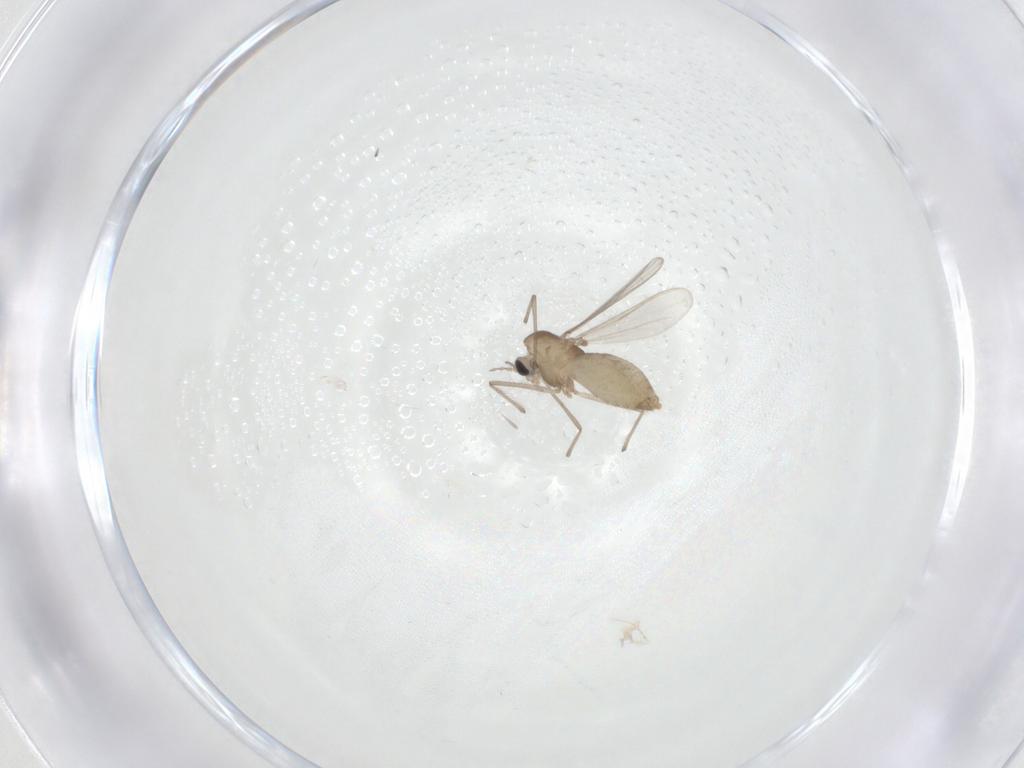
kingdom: Animalia
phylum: Arthropoda
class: Insecta
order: Diptera
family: Chironomidae
